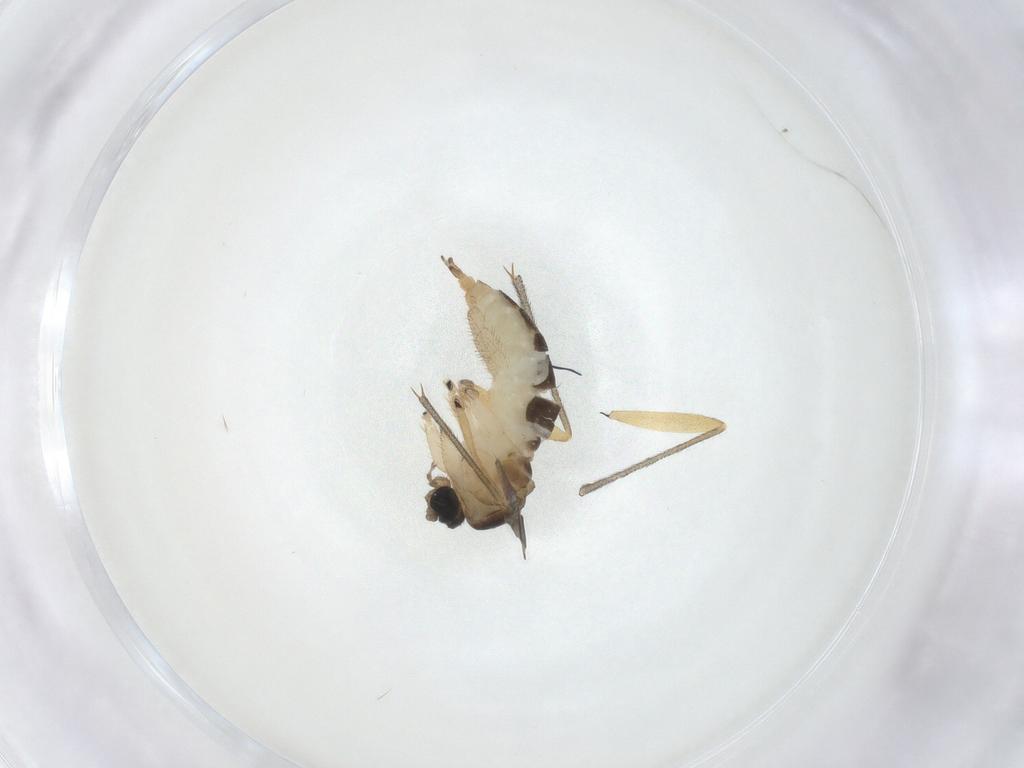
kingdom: Animalia
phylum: Arthropoda
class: Insecta
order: Diptera
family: Sciaridae
